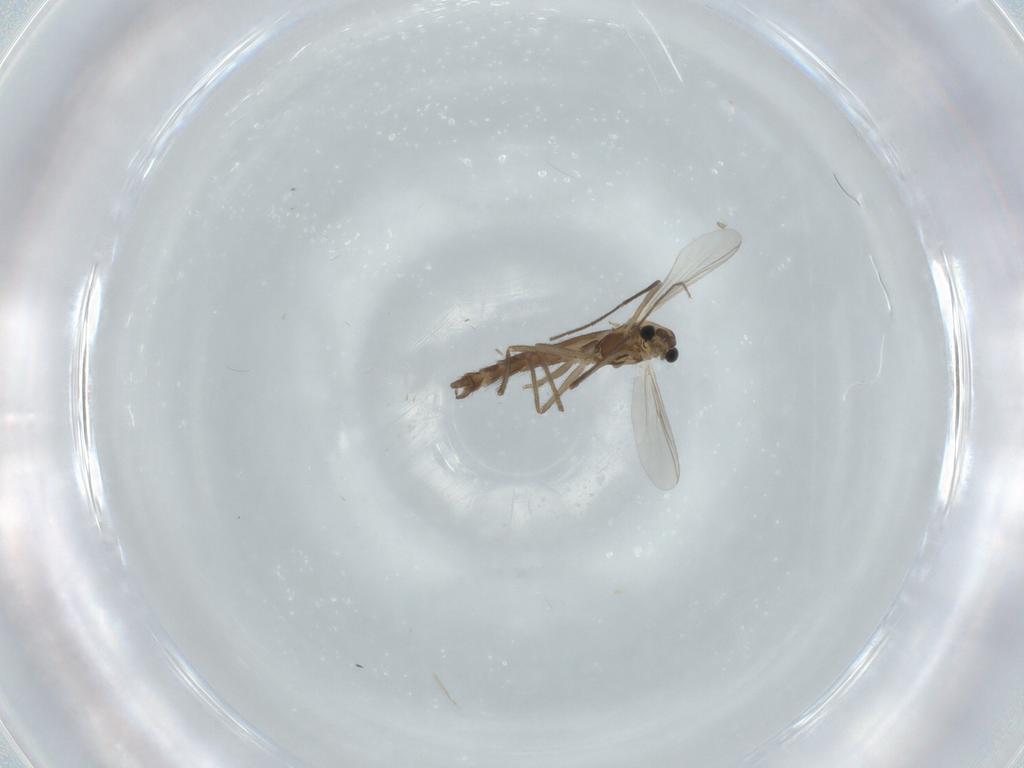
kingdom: Animalia
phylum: Arthropoda
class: Insecta
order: Diptera
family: Chironomidae
